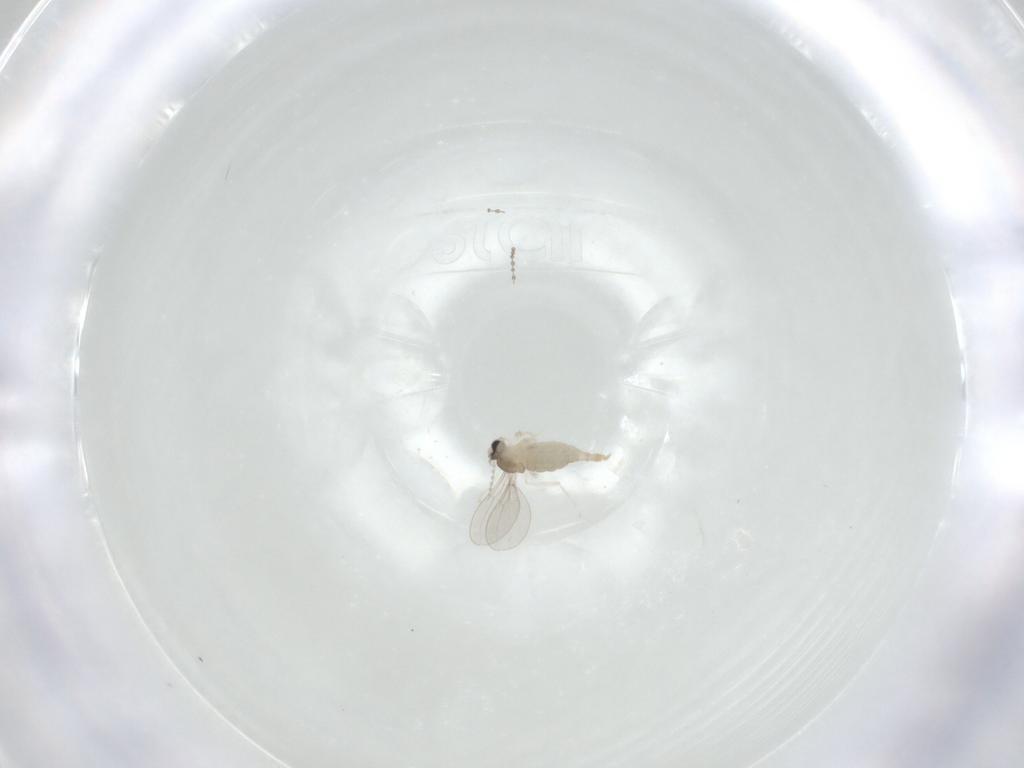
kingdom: Animalia
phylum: Arthropoda
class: Insecta
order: Diptera
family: Cecidomyiidae
